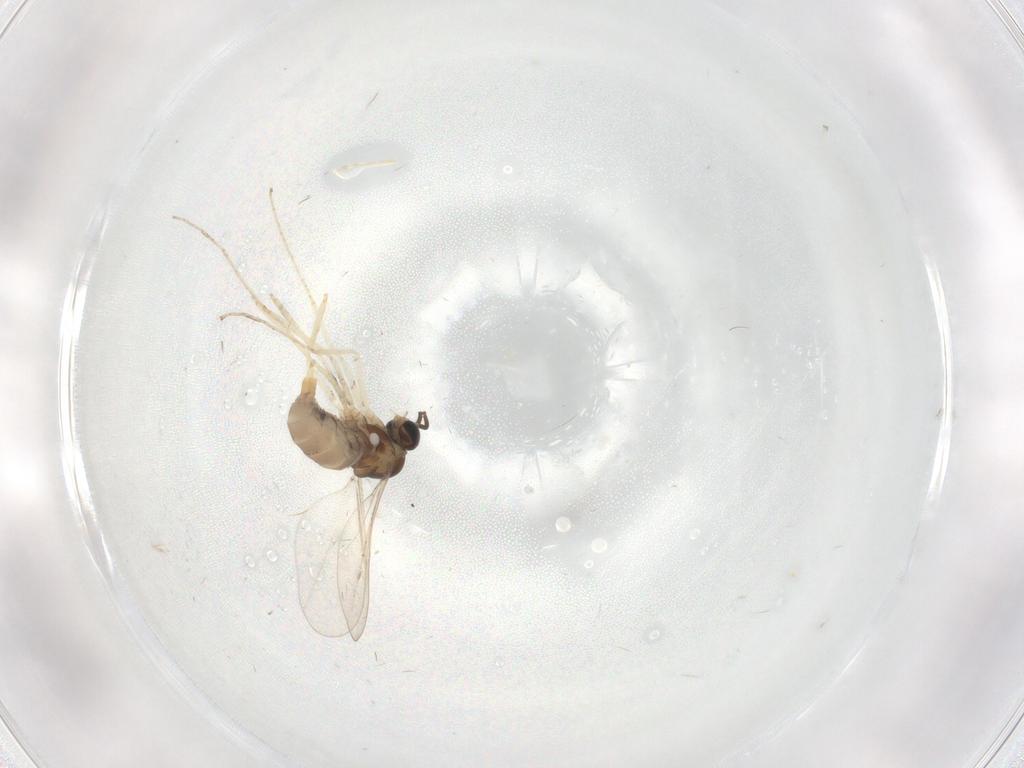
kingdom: Animalia
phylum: Arthropoda
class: Insecta
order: Diptera
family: Cecidomyiidae
